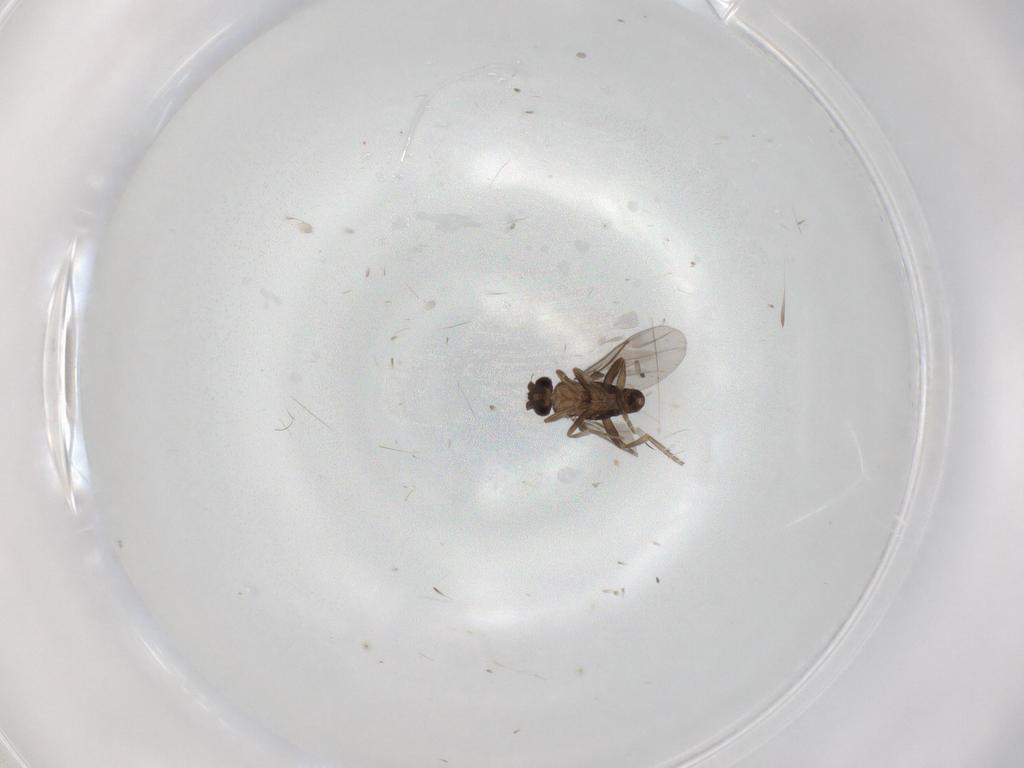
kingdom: Animalia
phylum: Arthropoda
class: Insecta
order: Diptera
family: Cecidomyiidae
